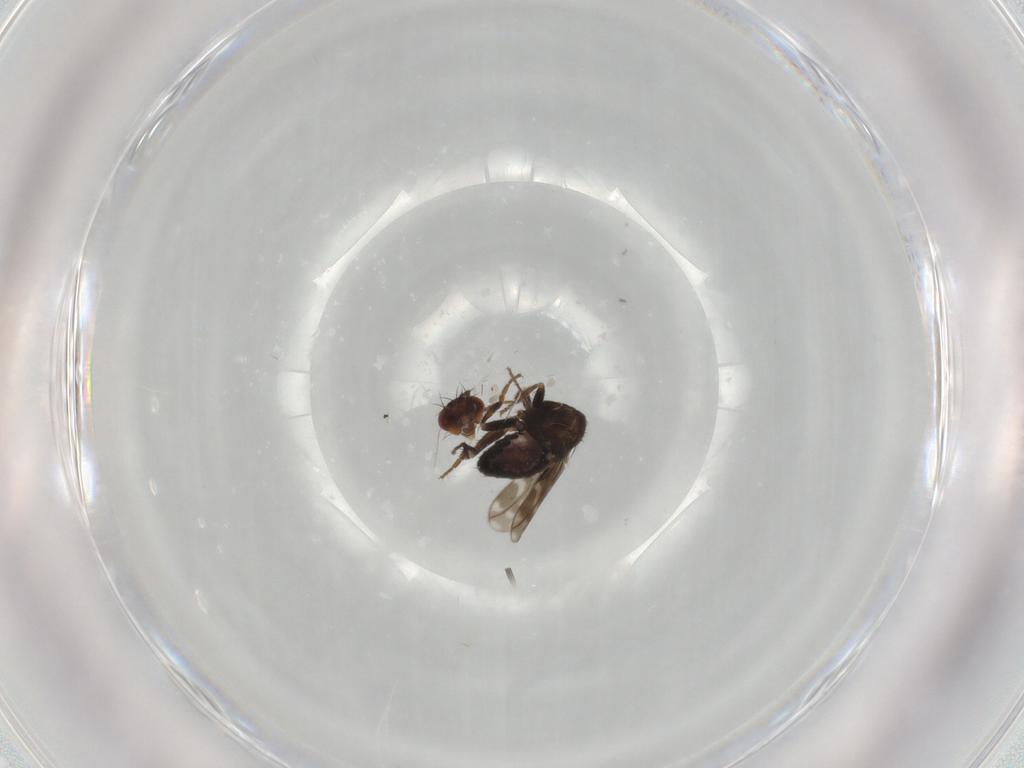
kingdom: Animalia
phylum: Arthropoda
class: Insecta
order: Diptera
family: Sphaeroceridae
